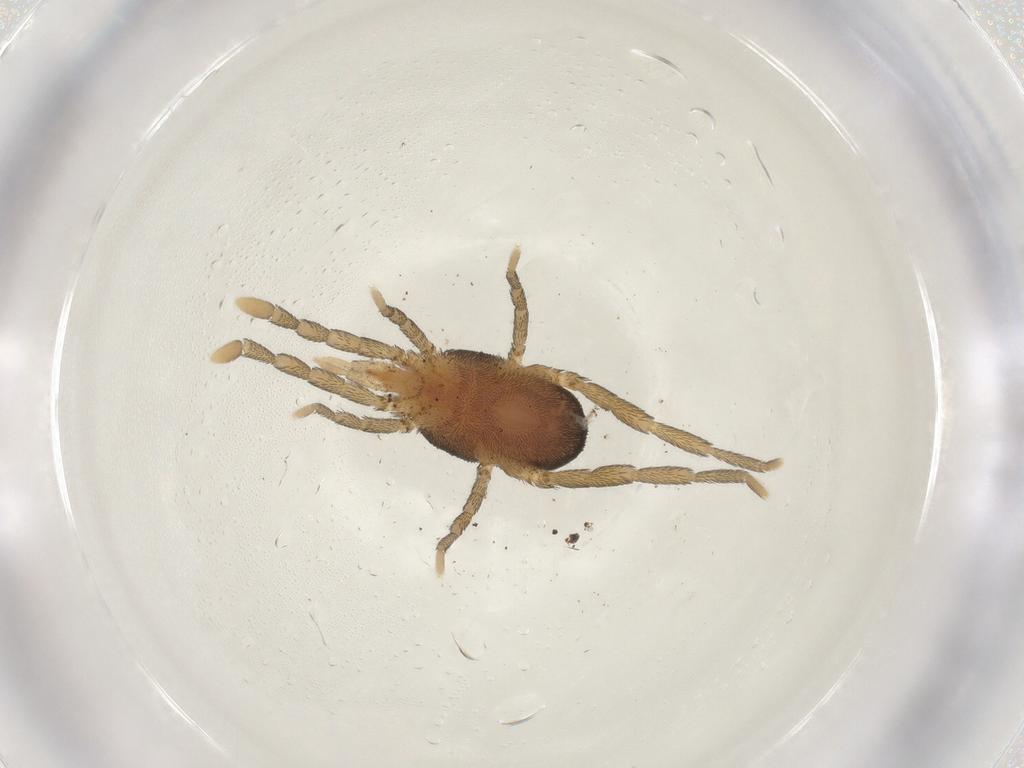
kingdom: Animalia
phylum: Arthropoda
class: Arachnida
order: Trombidiformes
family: Erythraeidae
